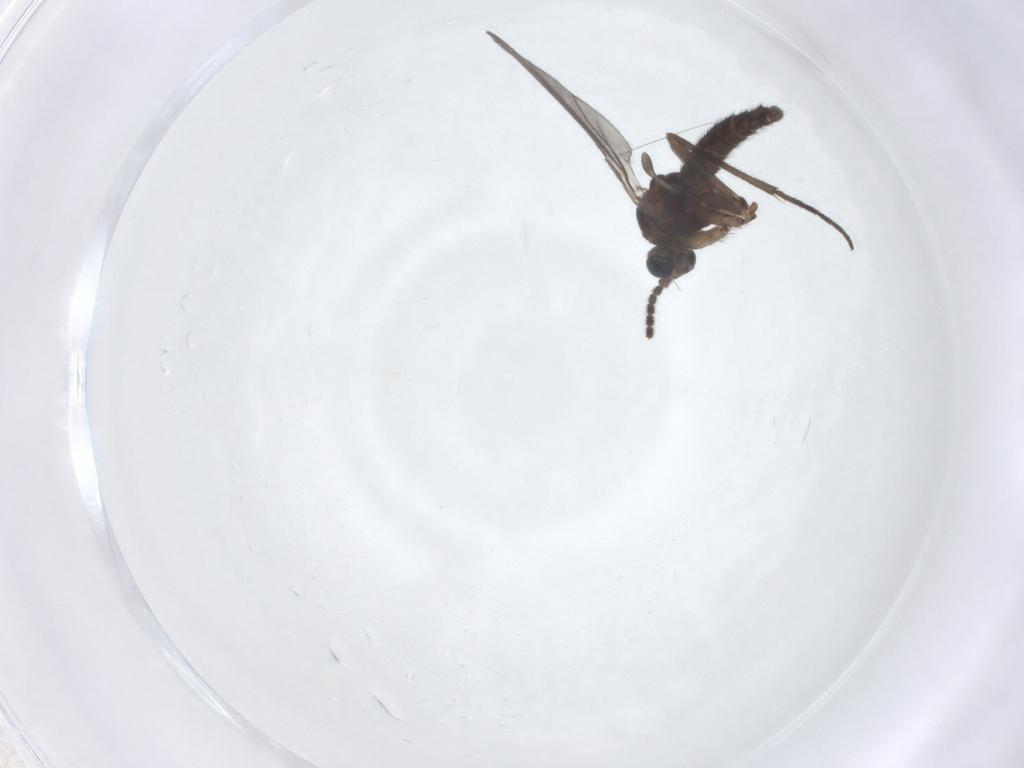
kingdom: Animalia
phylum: Arthropoda
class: Insecta
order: Diptera
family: Sciaridae
